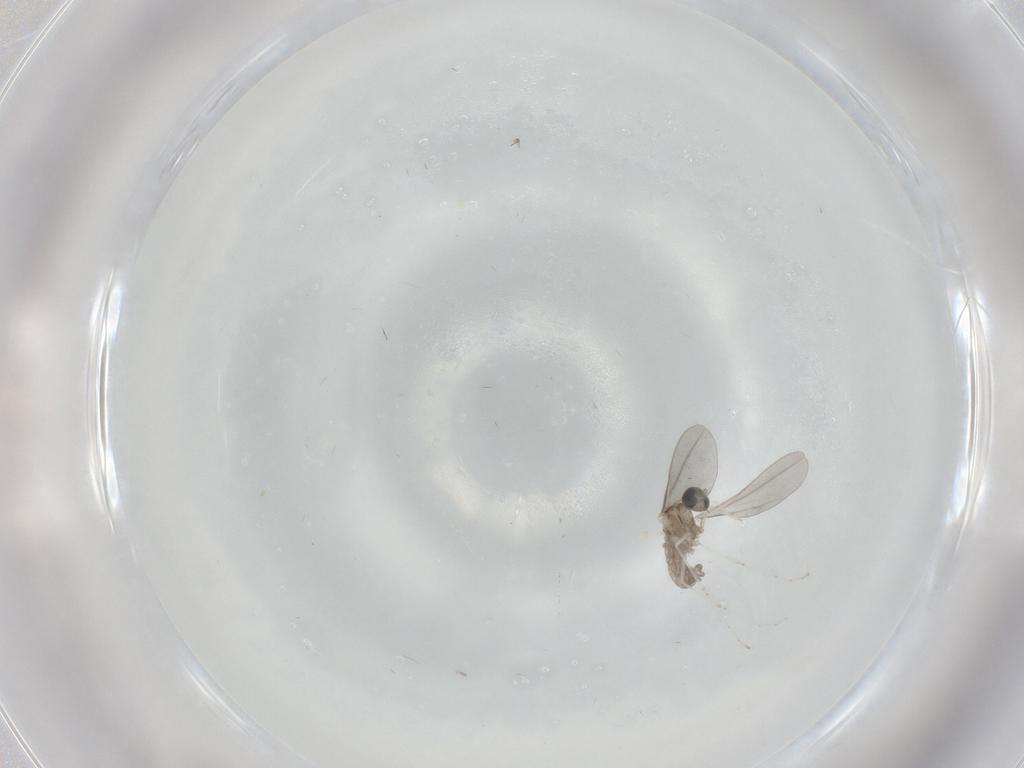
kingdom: Animalia
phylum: Arthropoda
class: Insecta
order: Diptera
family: Cecidomyiidae
